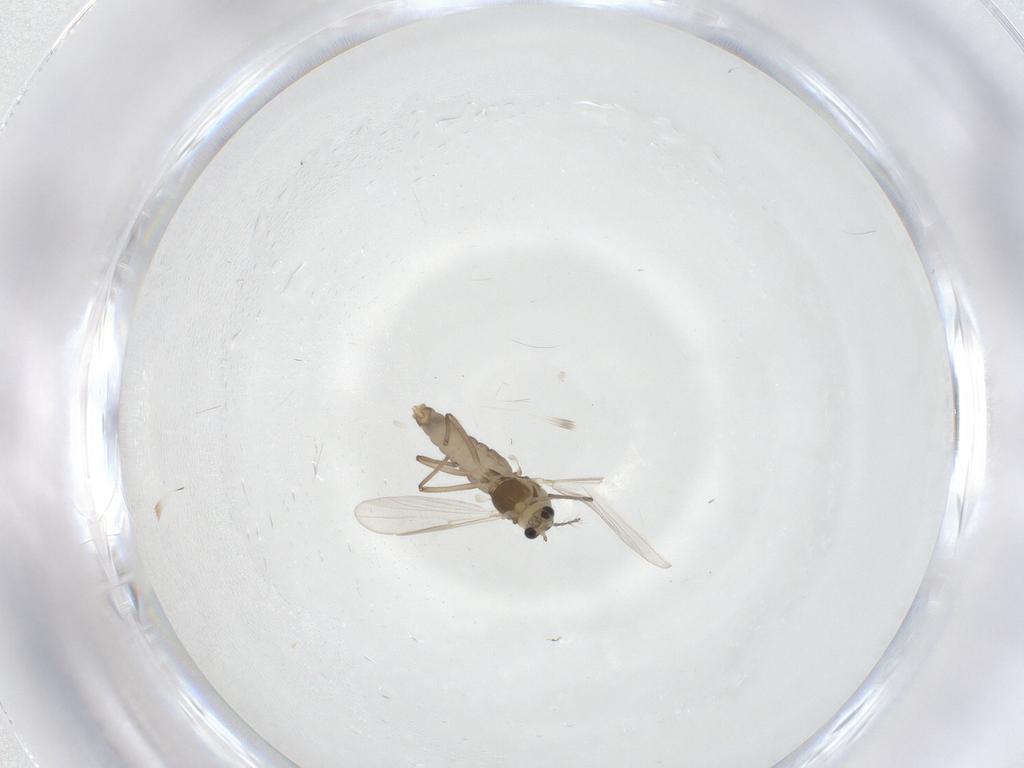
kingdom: Animalia
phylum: Arthropoda
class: Insecta
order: Diptera
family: Chironomidae
